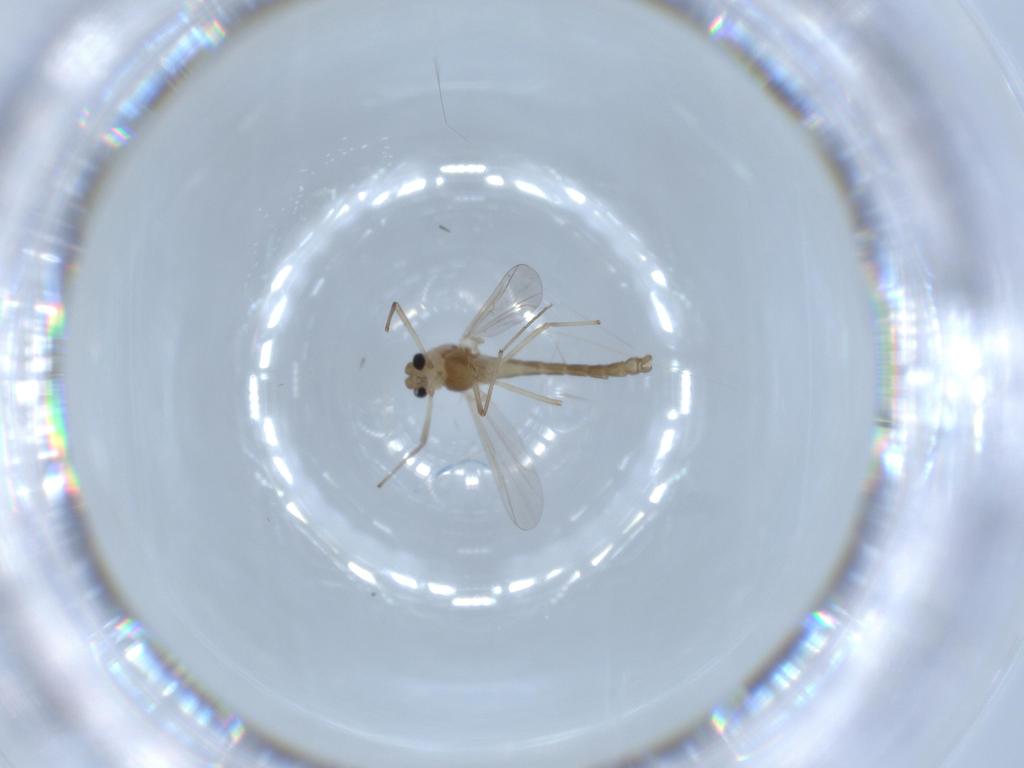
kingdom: Animalia
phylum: Arthropoda
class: Insecta
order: Diptera
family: Chironomidae
